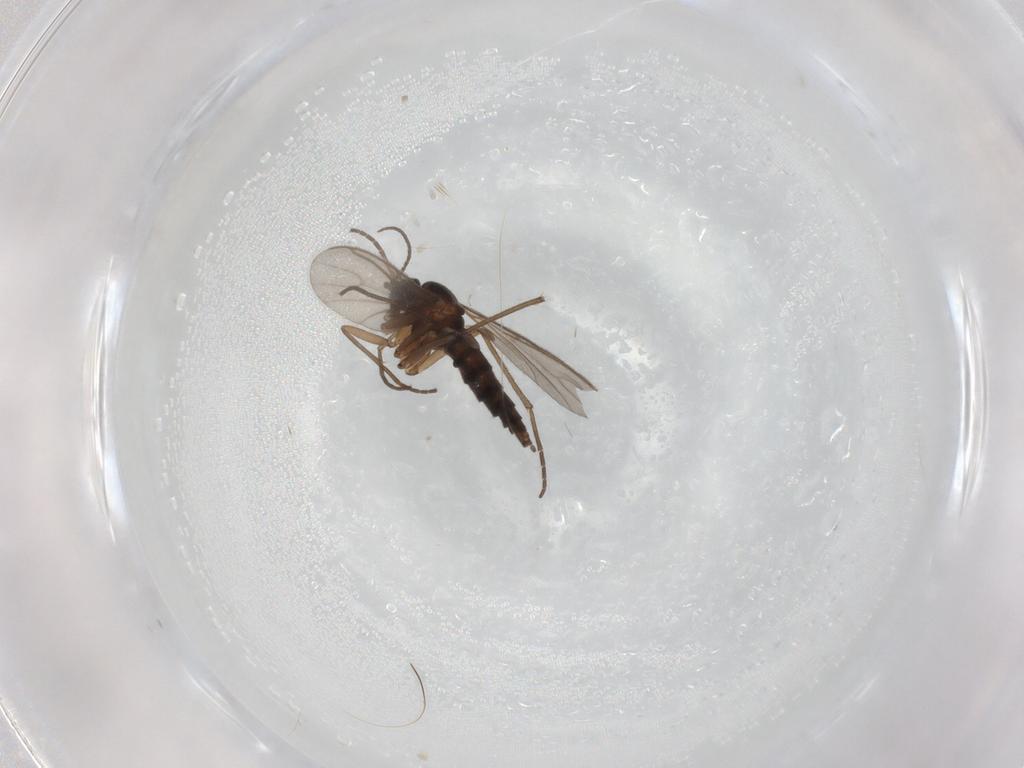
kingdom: Animalia
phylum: Arthropoda
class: Insecta
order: Diptera
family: Sciaridae
